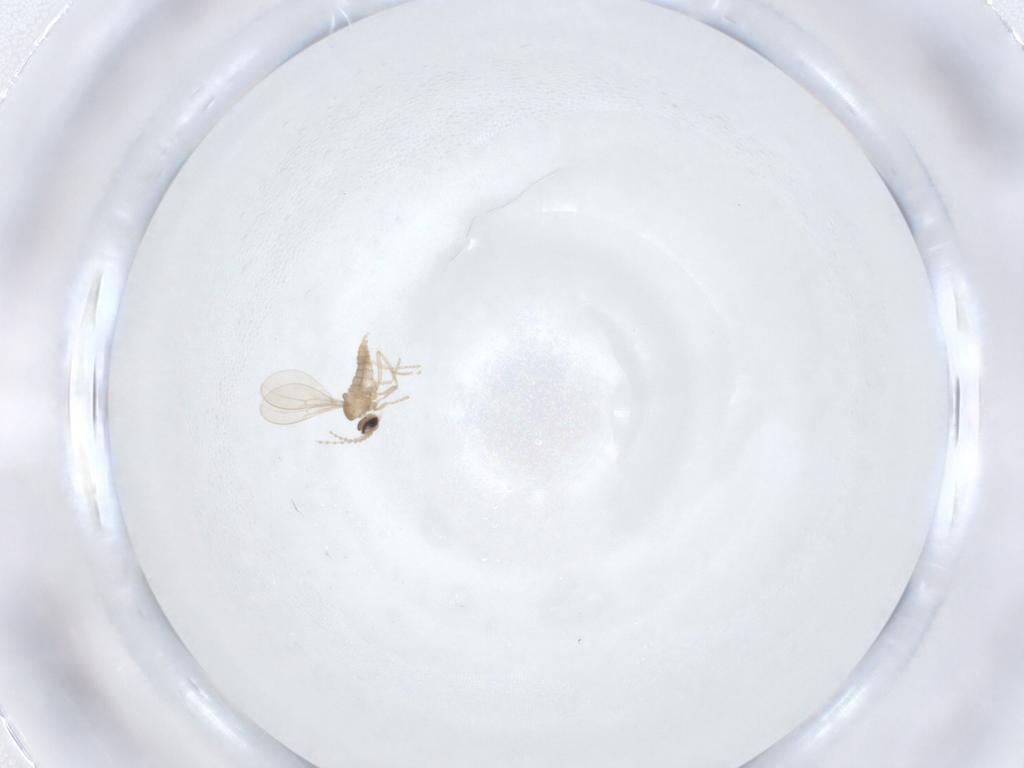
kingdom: Animalia
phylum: Arthropoda
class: Insecta
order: Diptera
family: Cecidomyiidae
